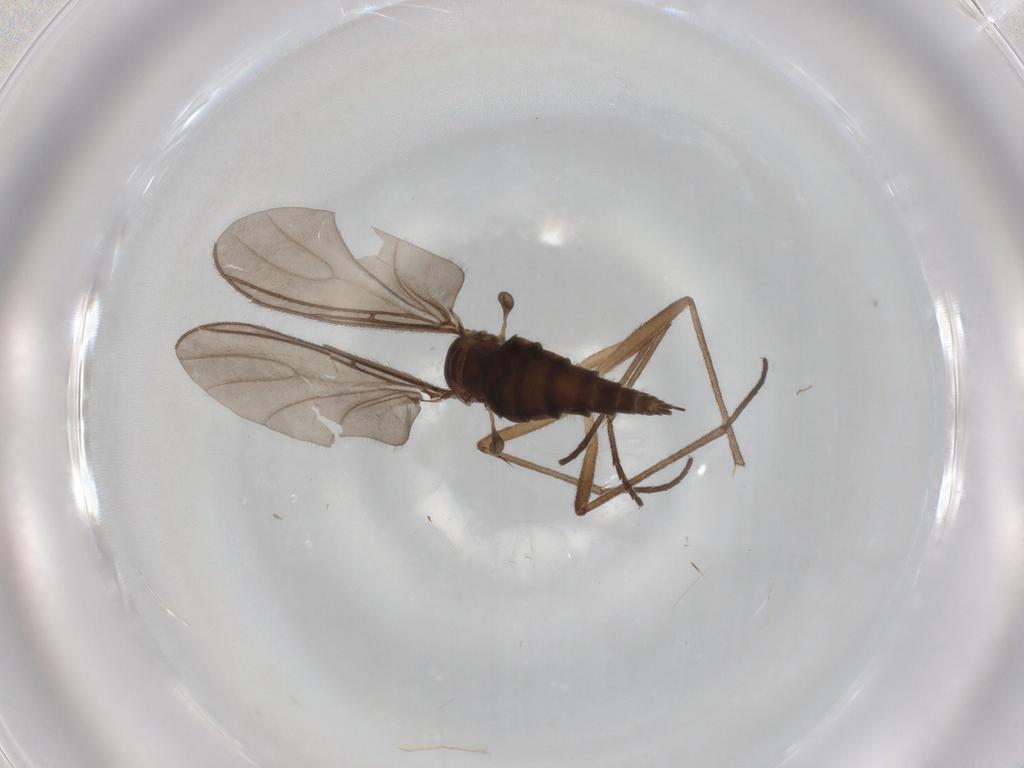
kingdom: Animalia
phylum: Arthropoda
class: Insecta
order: Diptera
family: Sciaridae
